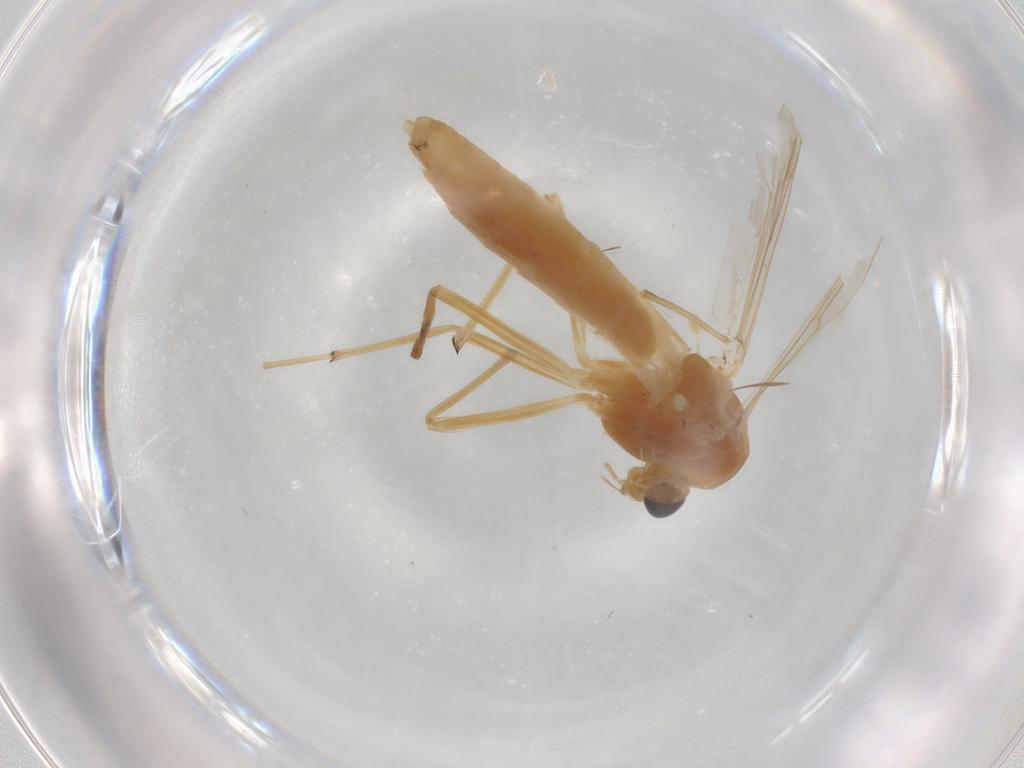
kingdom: Animalia
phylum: Arthropoda
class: Insecta
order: Diptera
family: Chironomidae
